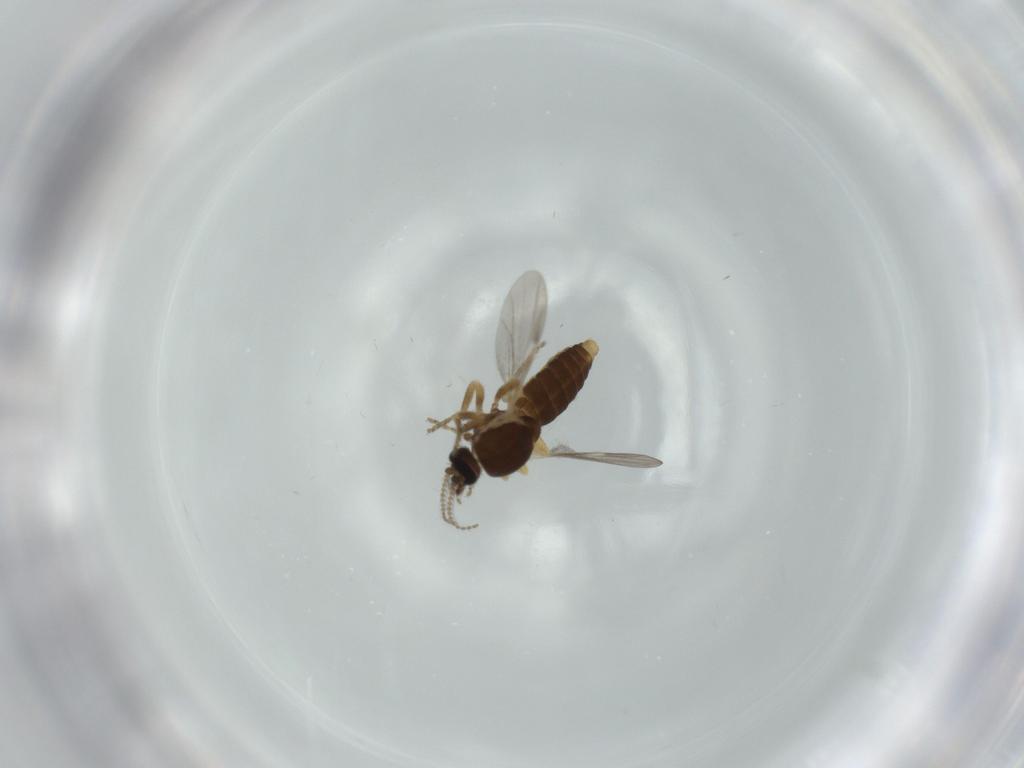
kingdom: Animalia
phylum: Arthropoda
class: Insecta
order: Diptera
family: Ceratopogonidae
